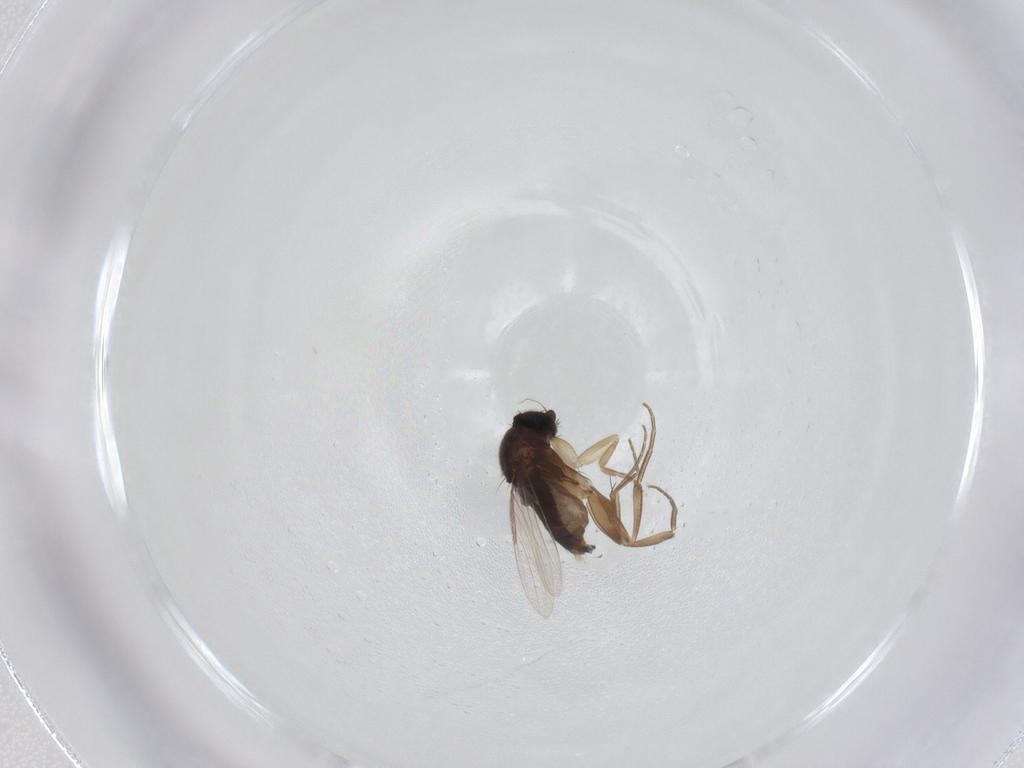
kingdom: Animalia
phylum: Arthropoda
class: Insecta
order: Diptera
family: Phoridae
